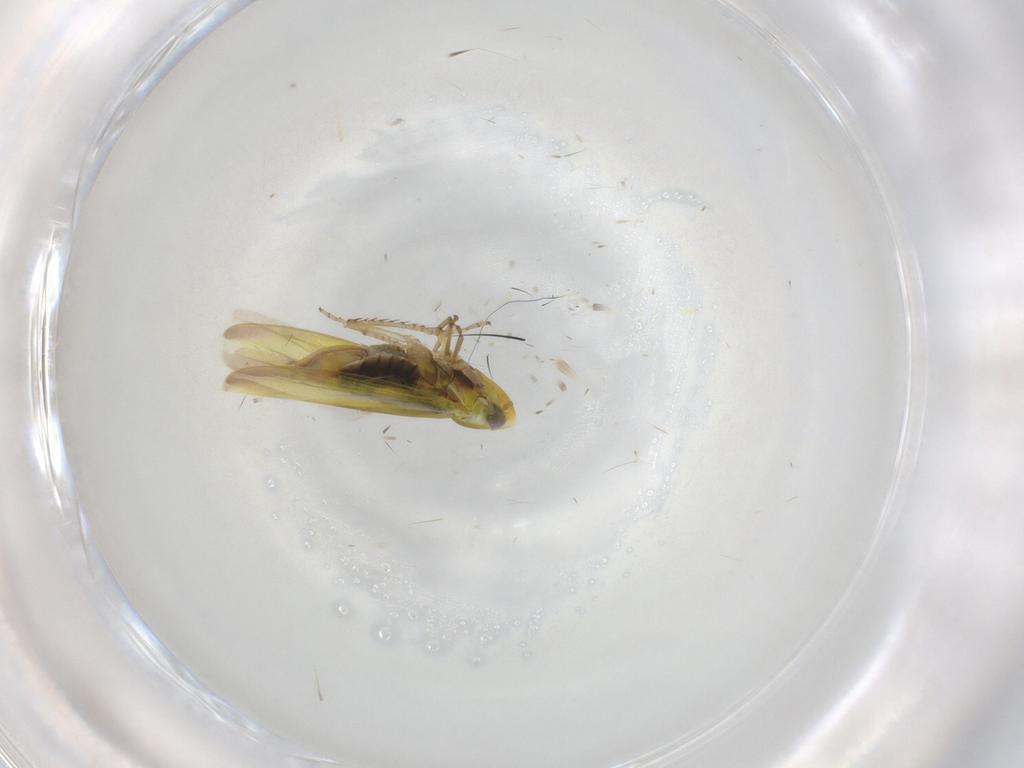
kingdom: Animalia
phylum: Arthropoda
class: Insecta
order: Hemiptera
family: Cicadellidae
